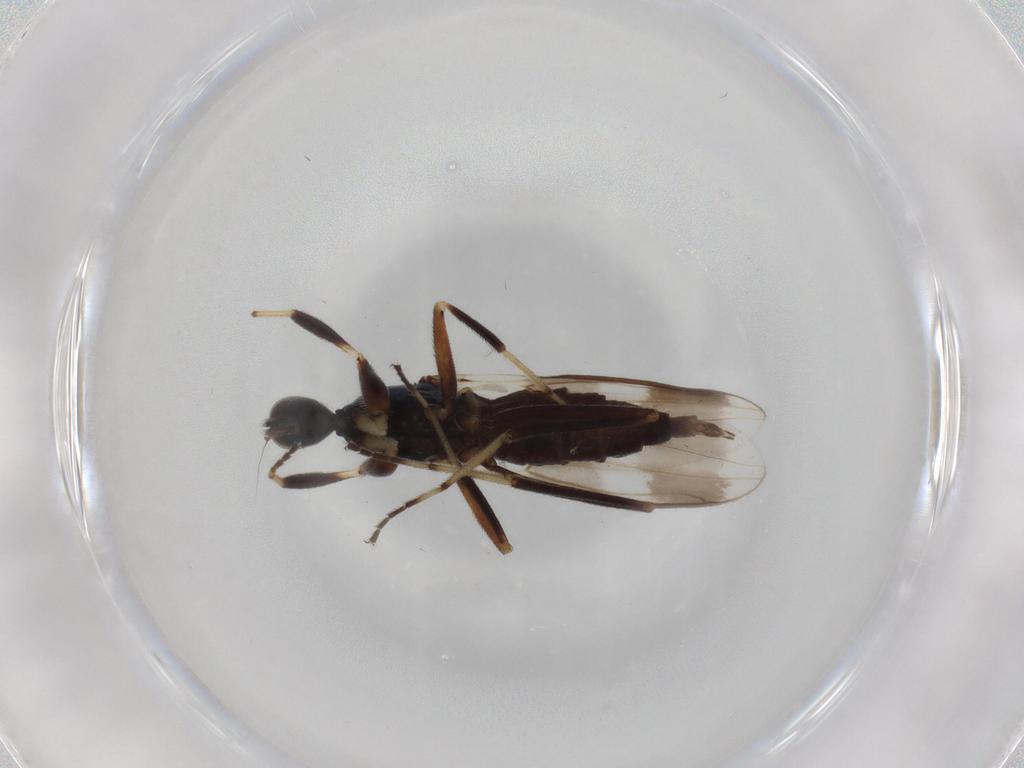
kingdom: Animalia
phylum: Arthropoda
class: Insecta
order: Diptera
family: Hybotidae
